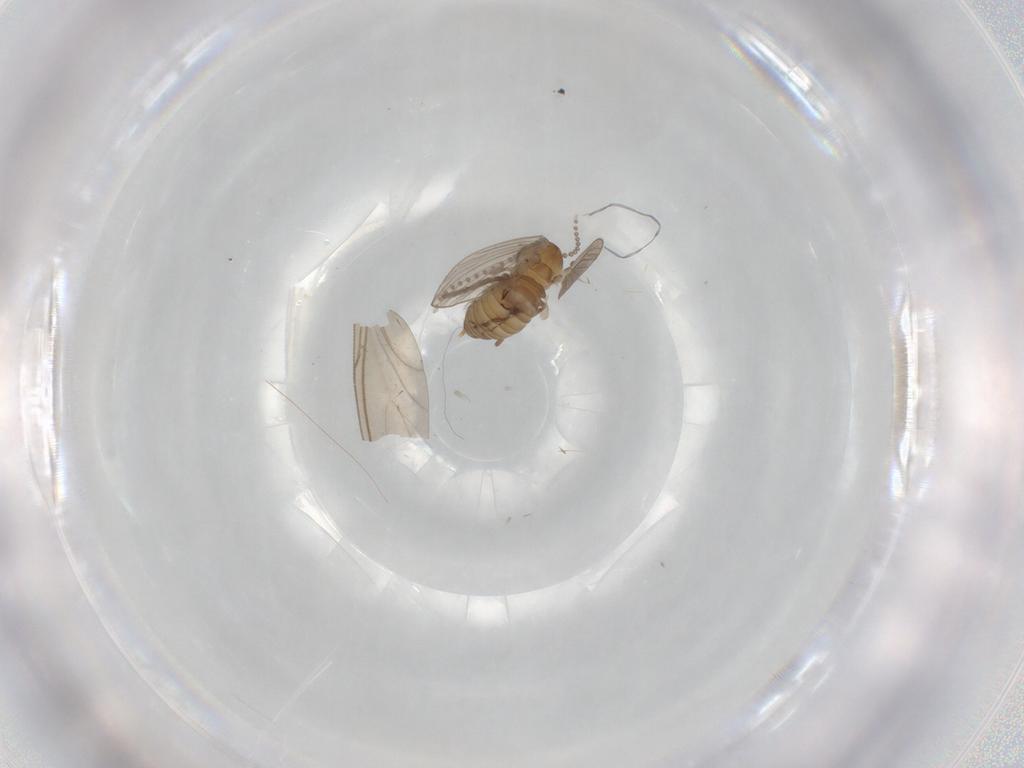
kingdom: Animalia
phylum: Arthropoda
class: Insecta
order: Diptera
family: Psychodidae
